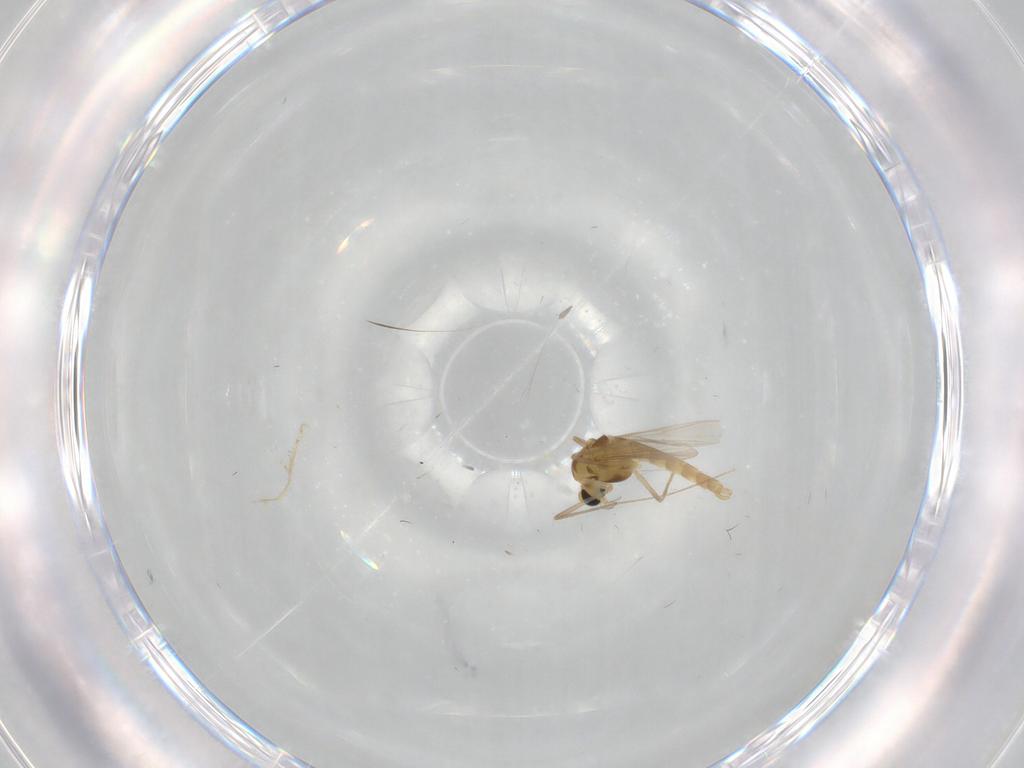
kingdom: Animalia
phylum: Arthropoda
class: Insecta
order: Diptera
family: Chironomidae
